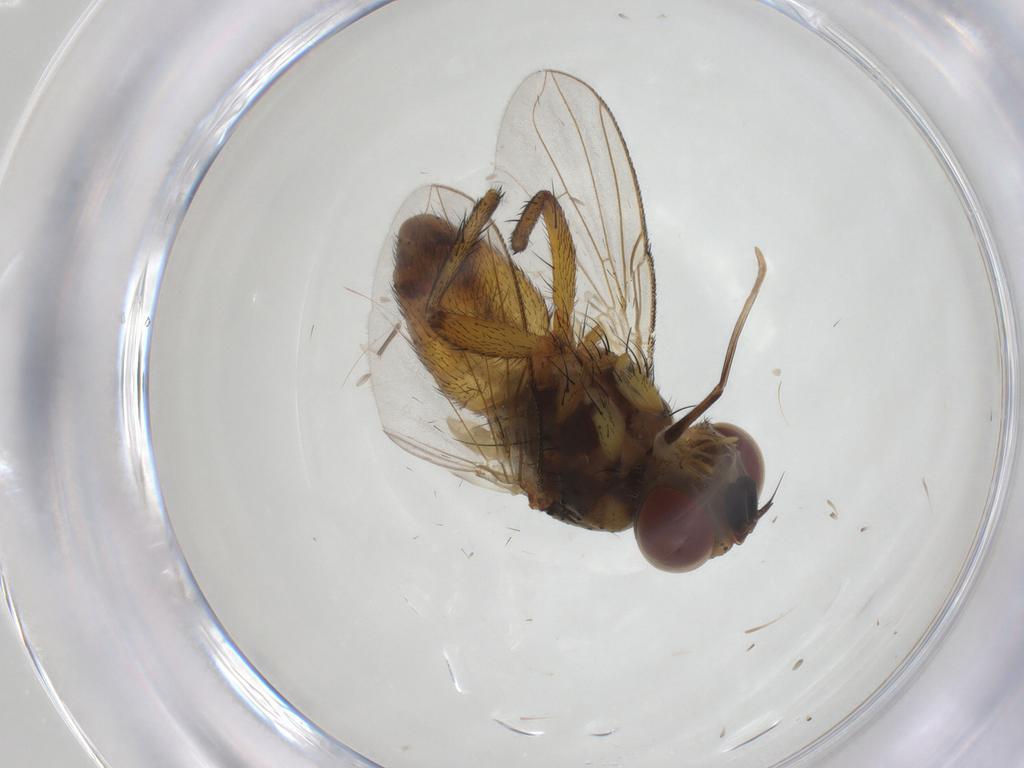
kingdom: Animalia
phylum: Arthropoda
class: Insecta
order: Diptera
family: Tachinidae
